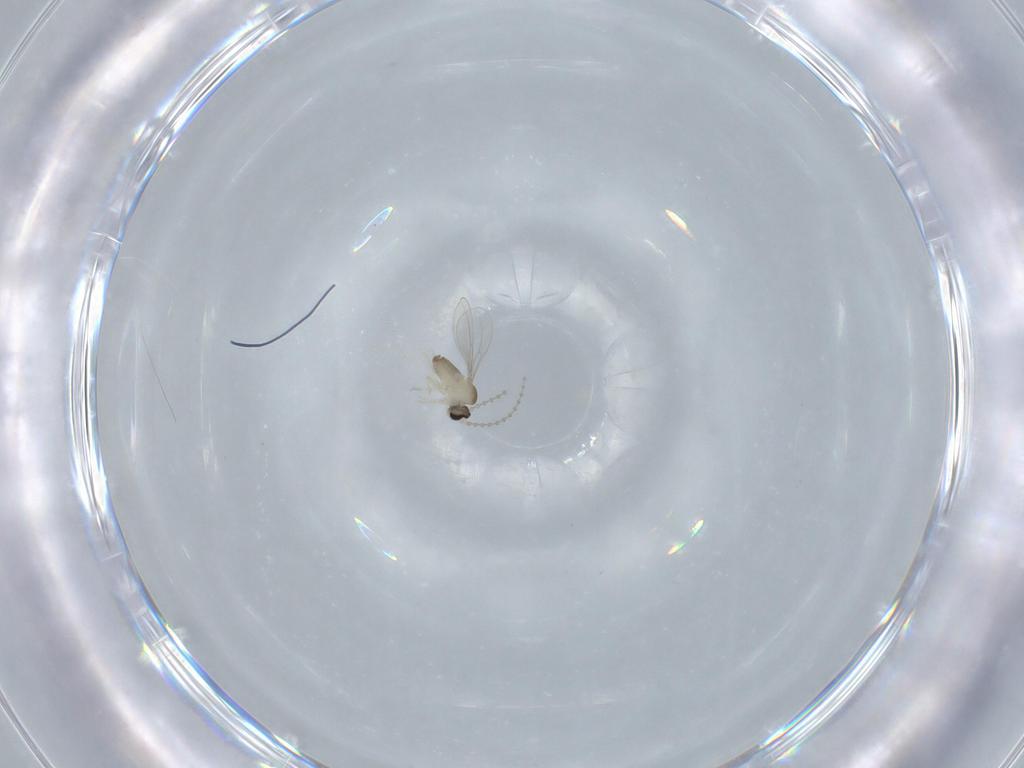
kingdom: Animalia
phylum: Arthropoda
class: Insecta
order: Diptera
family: Cecidomyiidae
